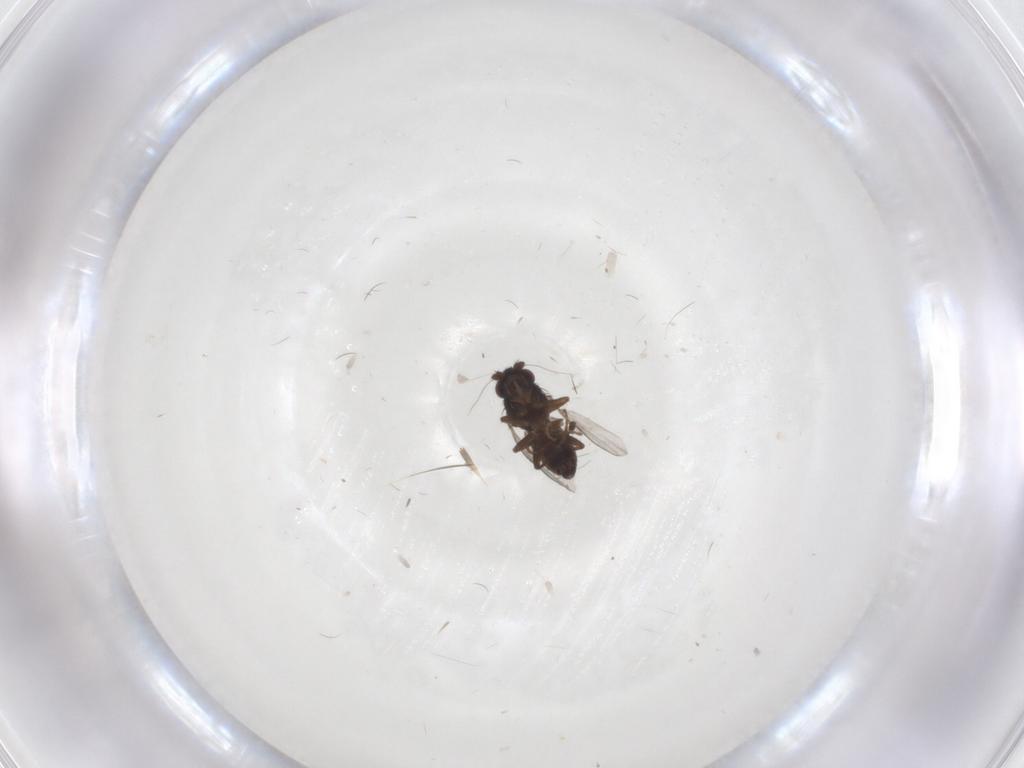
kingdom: Animalia
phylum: Arthropoda
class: Insecta
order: Diptera
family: Sphaeroceridae
